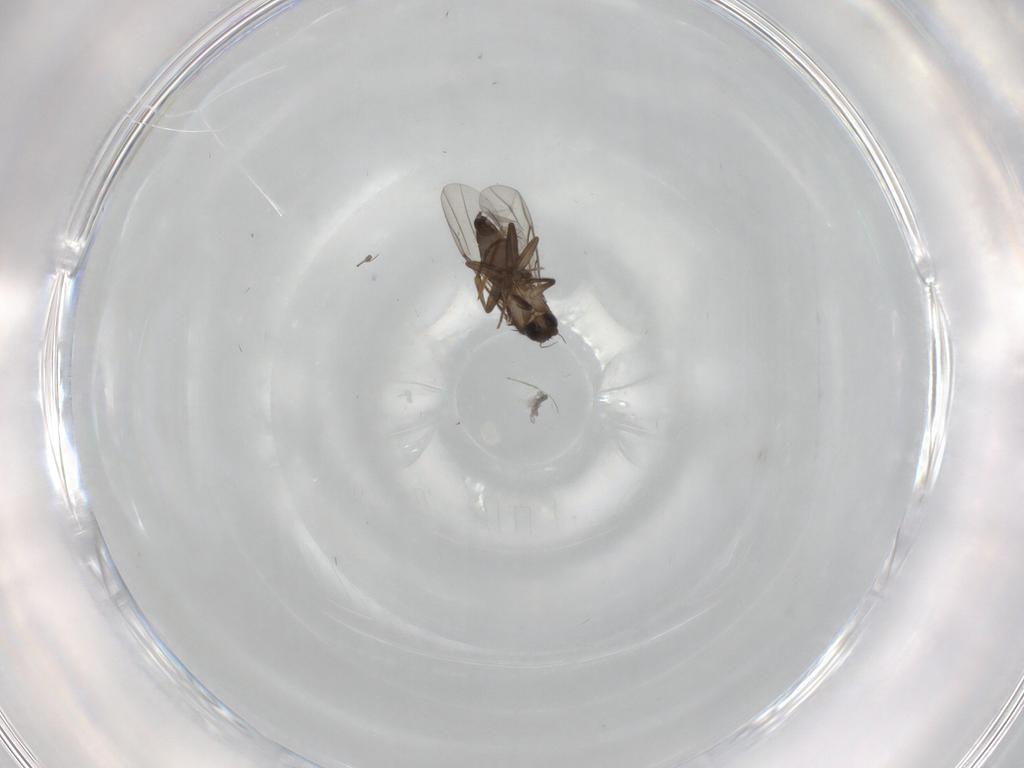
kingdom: Animalia
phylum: Arthropoda
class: Insecta
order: Diptera
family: Phoridae
